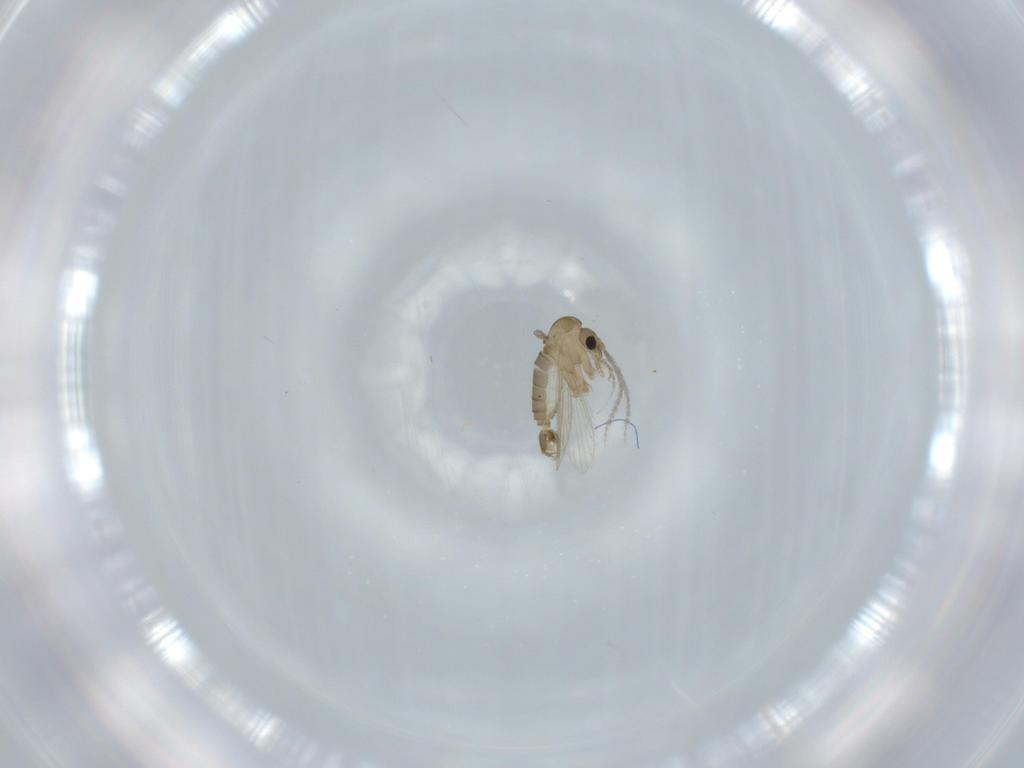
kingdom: Animalia
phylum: Arthropoda
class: Insecta
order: Diptera
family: Psychodidae
